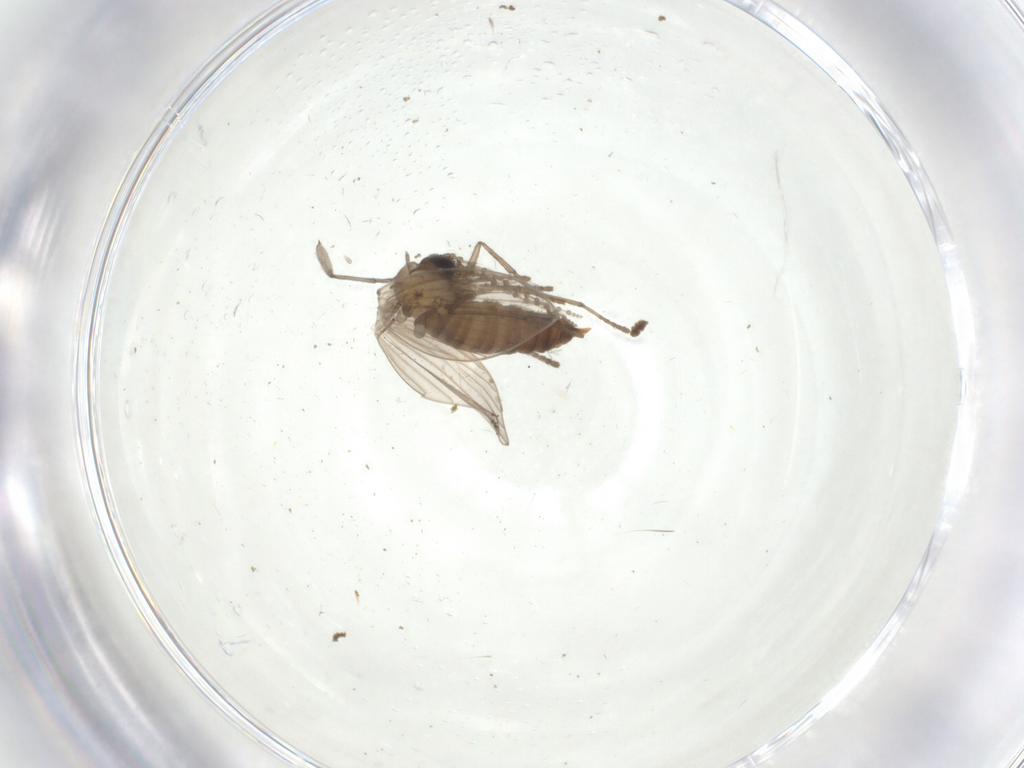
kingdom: Animalia
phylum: Arthropoda
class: Insecta
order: Diptera
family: Sciaridae
